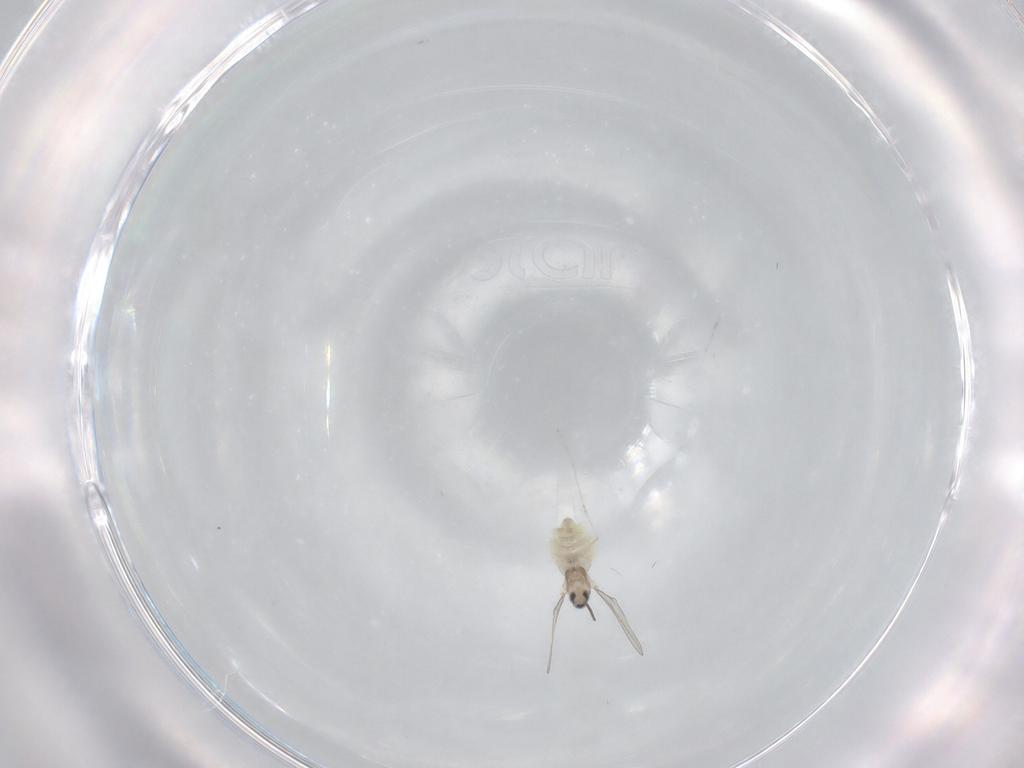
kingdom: Animalia
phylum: Arthropoda
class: Insecta
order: Diptera
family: Cecidomyiidae
